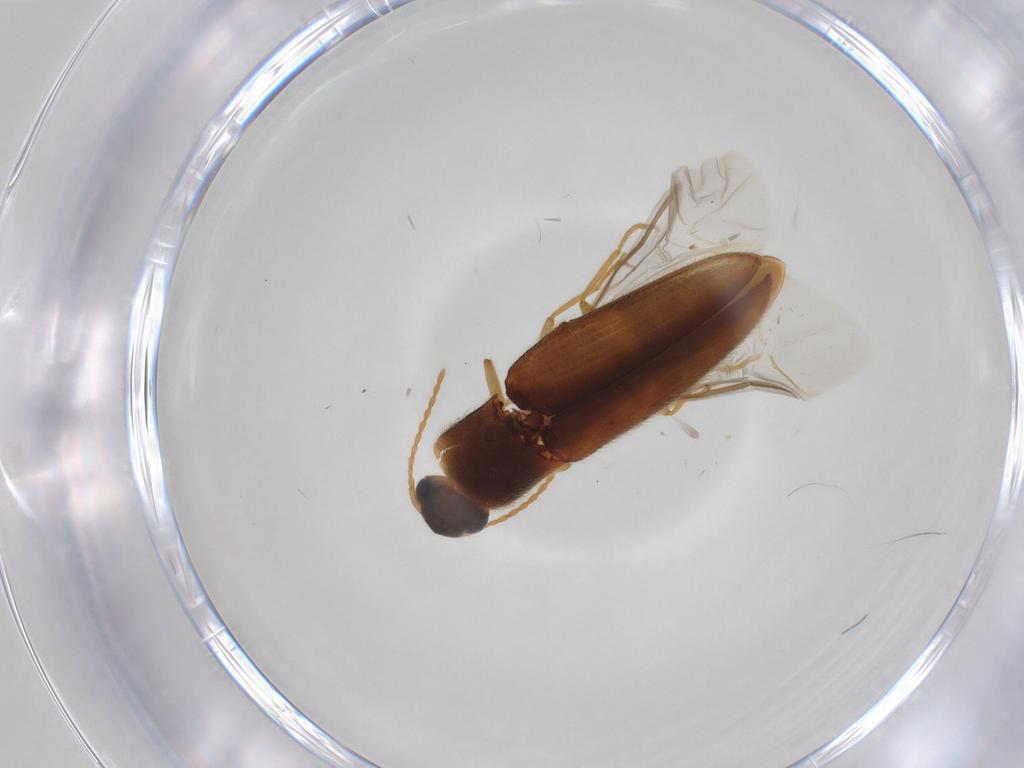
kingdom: Animalia
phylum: Arthropoda
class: Insecta
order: Coleoptera
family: Elateridae
